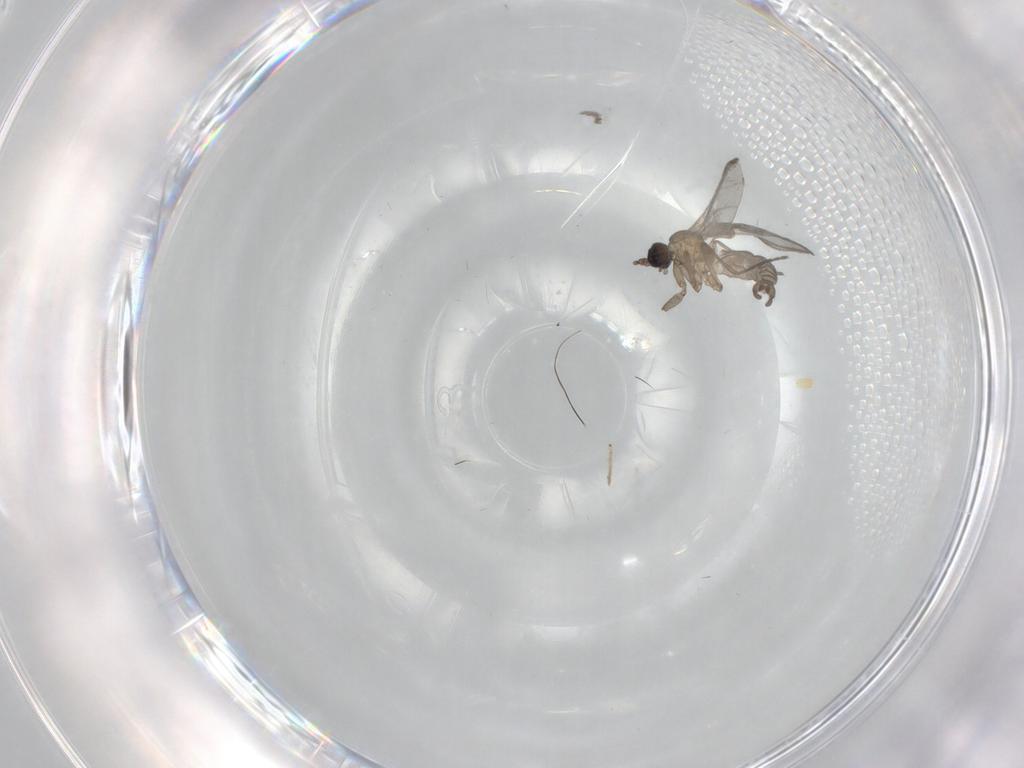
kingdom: Animalia
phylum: Arthropoda
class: Insecta
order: Diptera
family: Sciaridae
